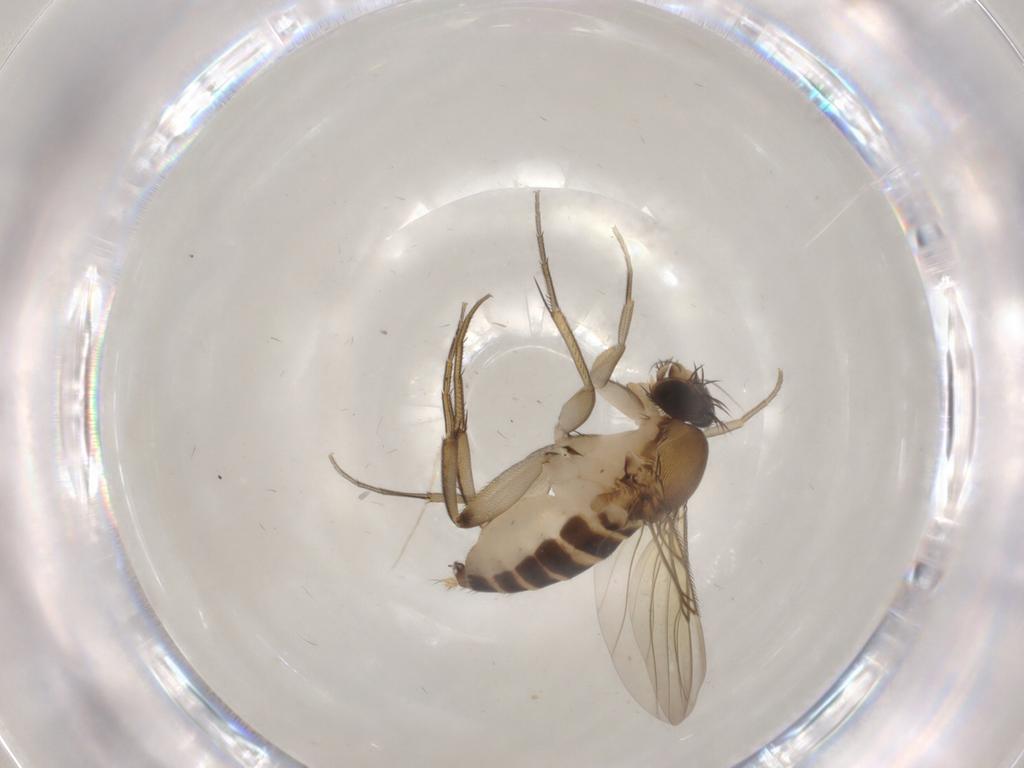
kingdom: Animalia
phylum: Arthropoda
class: Insecta
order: Diptera
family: Phoridae
